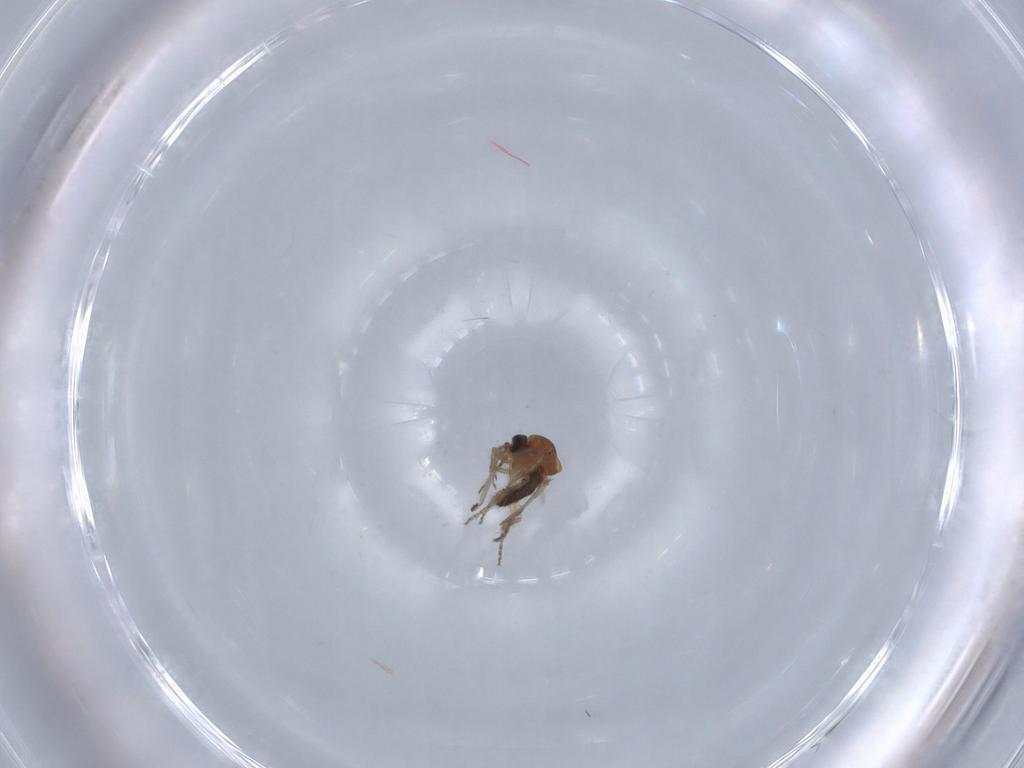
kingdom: Animalia
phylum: Arthropoda
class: Insecta
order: Diptera
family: Ceratopogonidae
